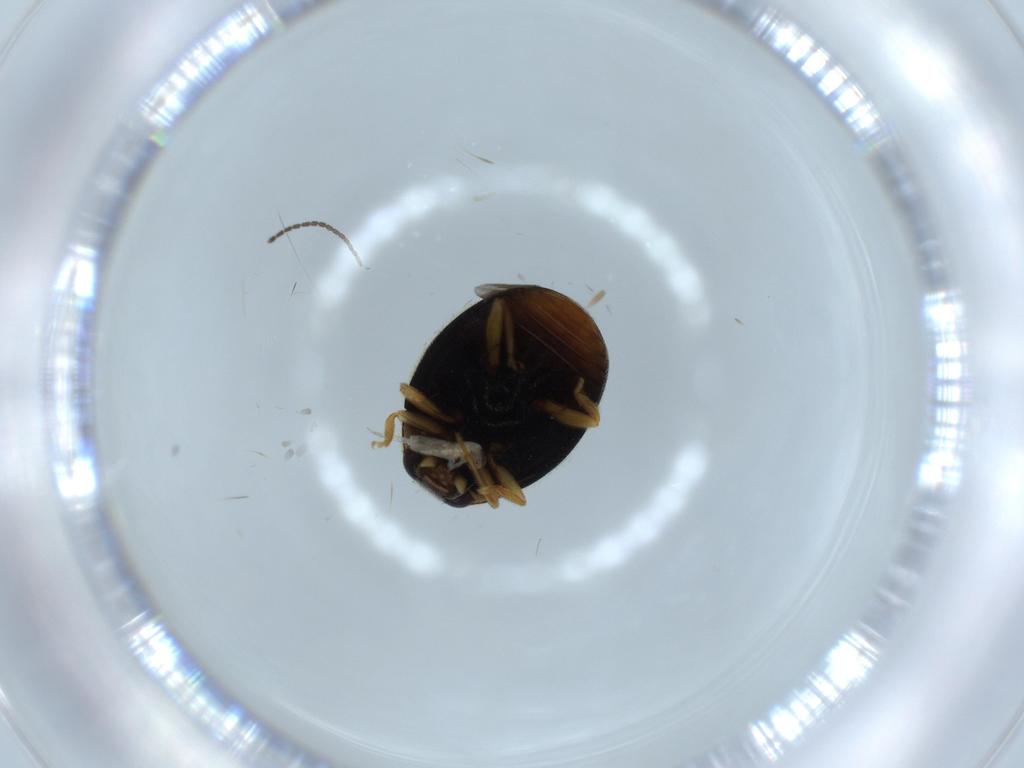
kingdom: Animalia
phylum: Arthropoda
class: Insecta
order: Coleoptera
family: Coccinellidae
